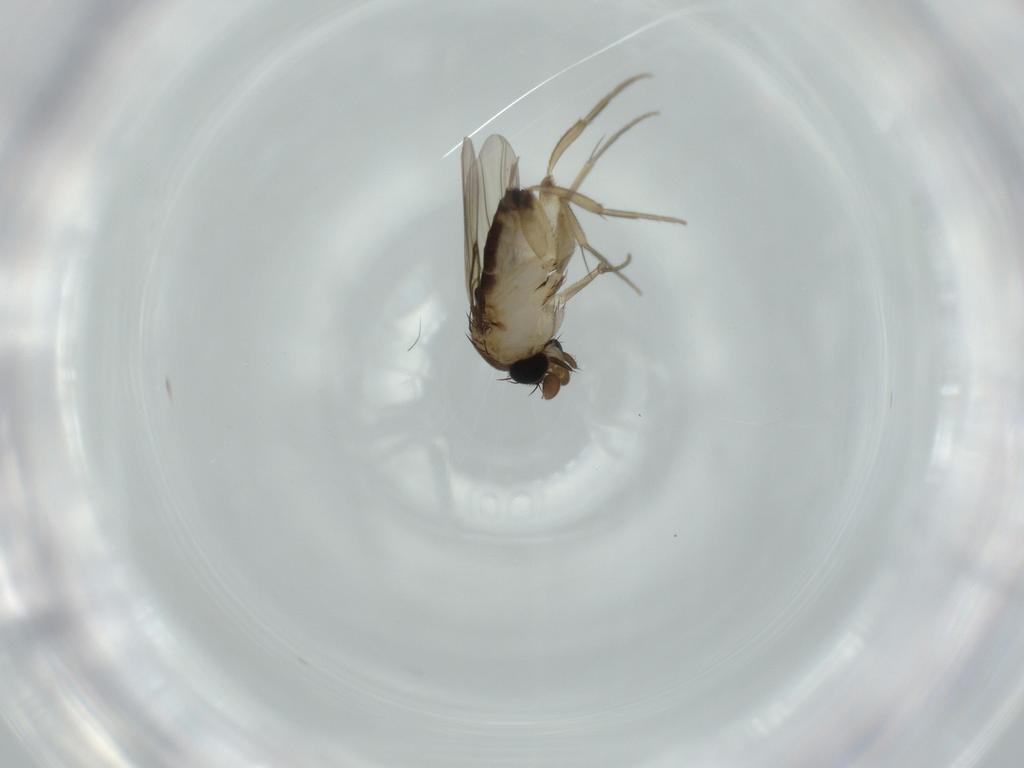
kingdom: Animalia
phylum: Arthropoda
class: Insecta
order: Diptera
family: Phoridae
